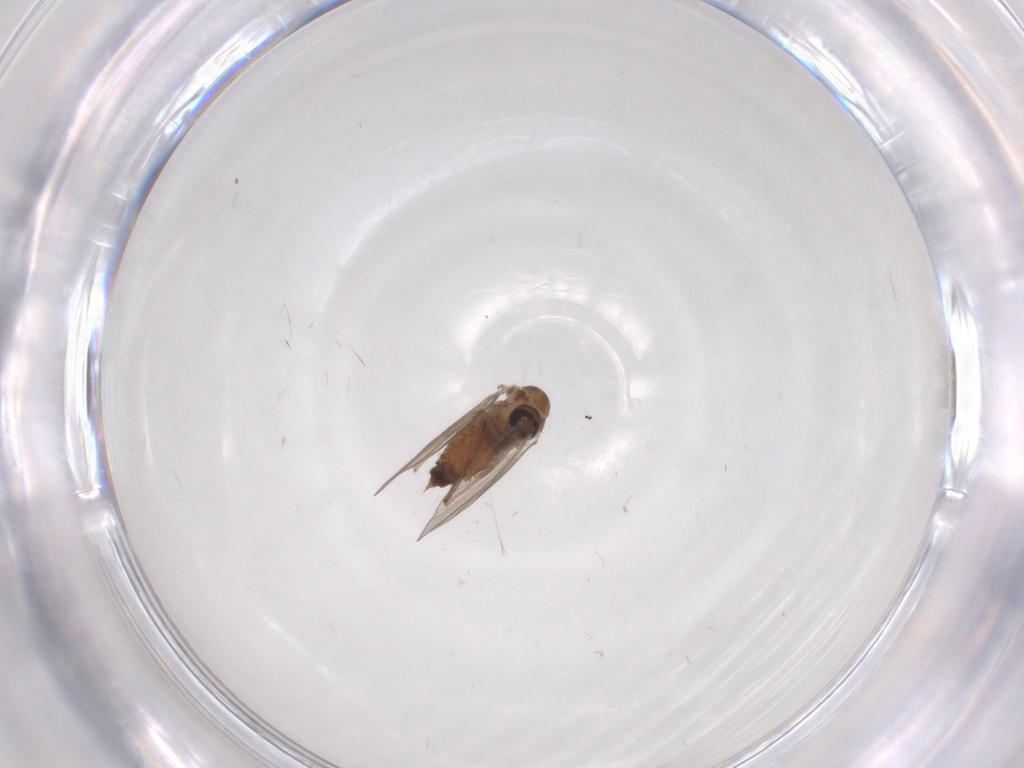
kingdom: Animalia
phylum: Arthropoda
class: Insecta
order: Diptera
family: Psychodidae
